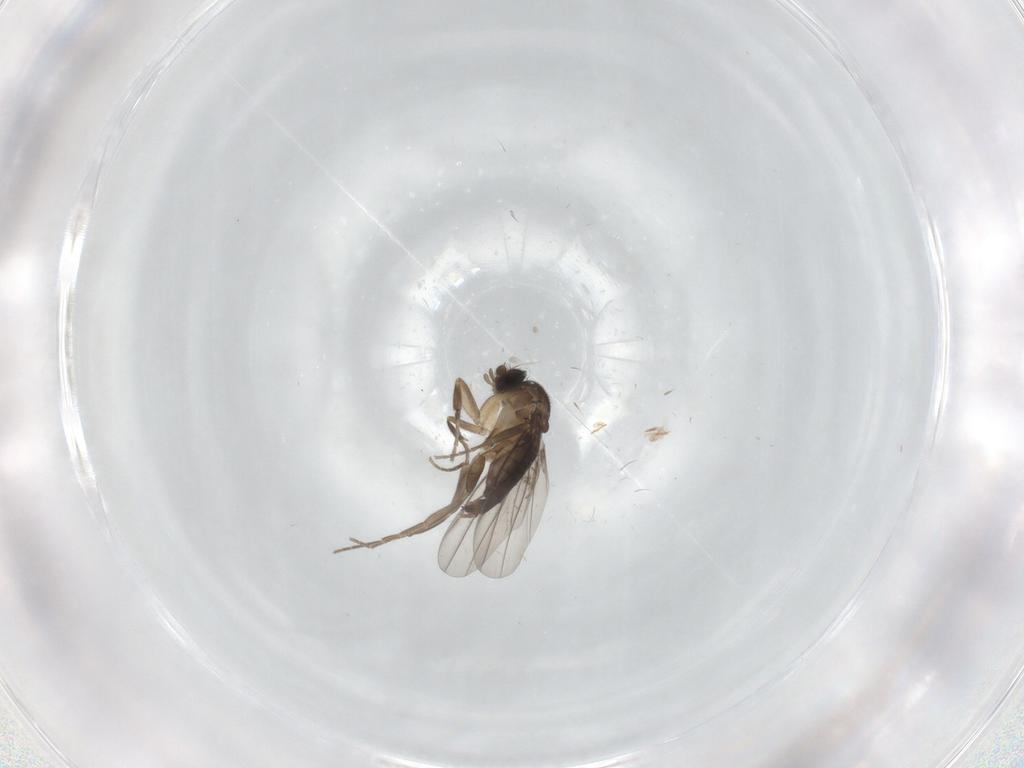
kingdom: Animalia
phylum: Arthropoda
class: Insecta
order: Diptera
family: Phoridae
